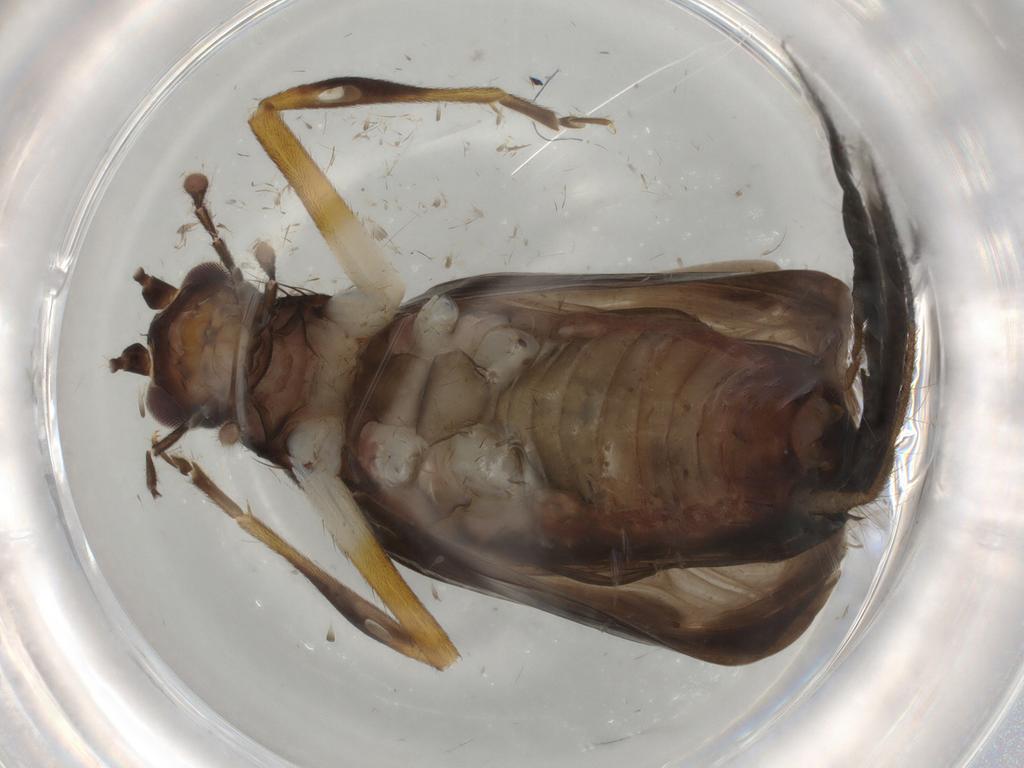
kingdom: Animalia
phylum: Arthropoda
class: Insecta
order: Orthoptera
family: Trigonidiidae
